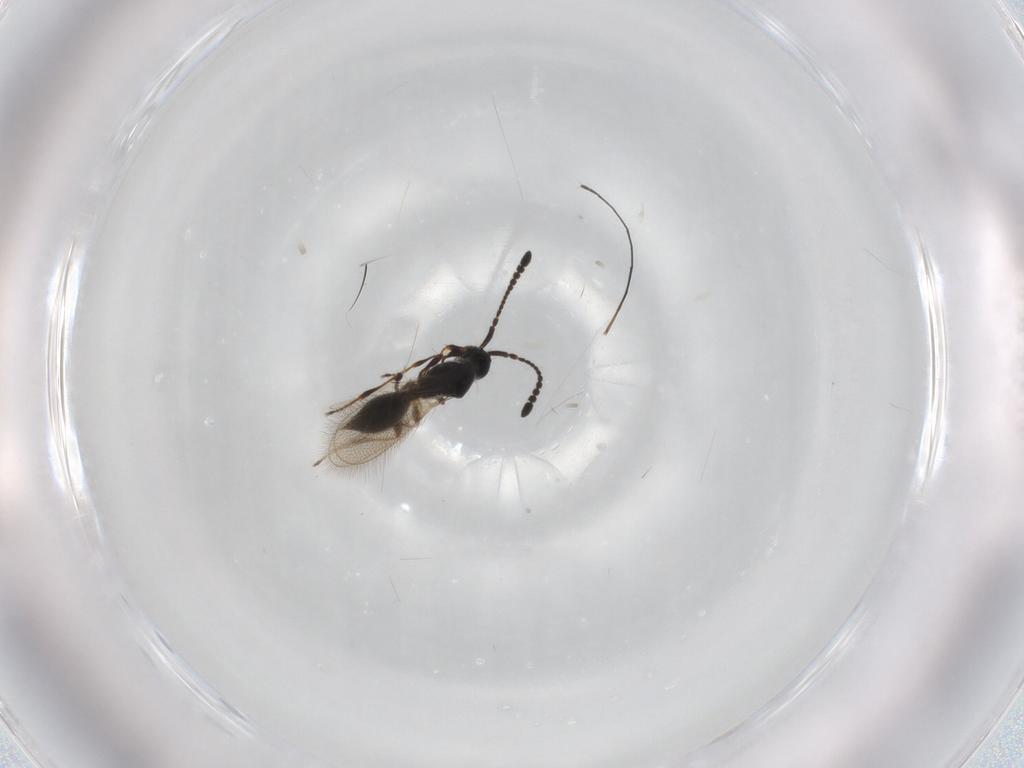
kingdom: Animalia
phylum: Arthropoda
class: Insecta
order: Hymenoptera
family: Diapriidae
